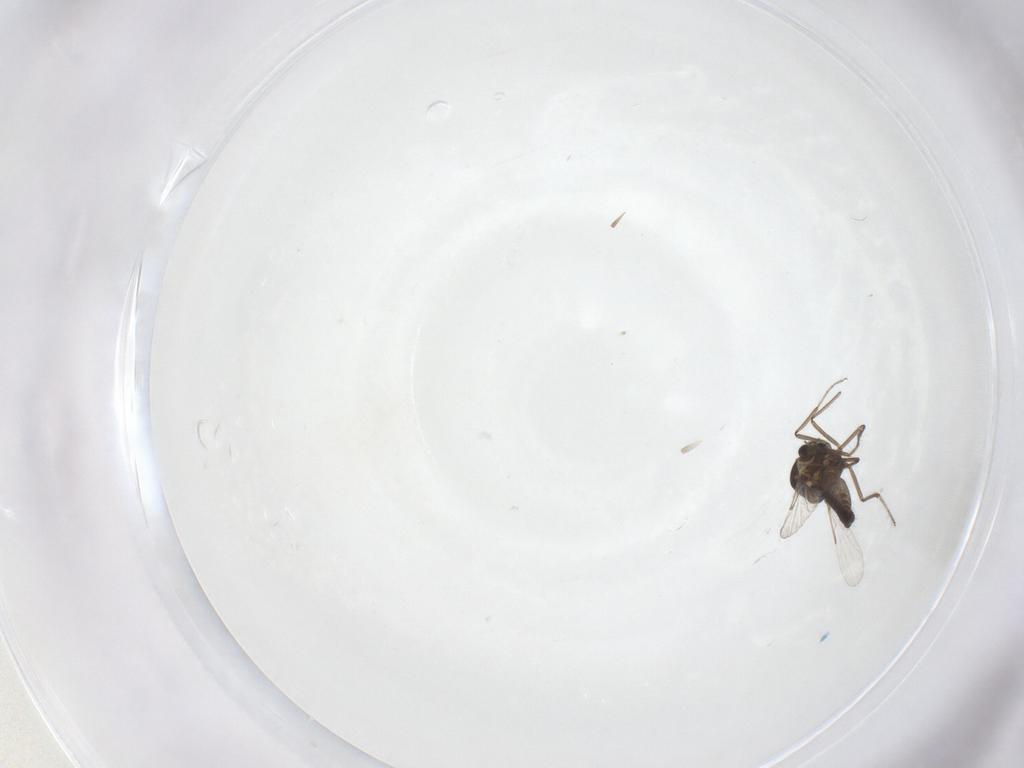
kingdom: Animalia
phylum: Arthropoda
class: Insecta
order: Diptera
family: Ceratopogonidae
